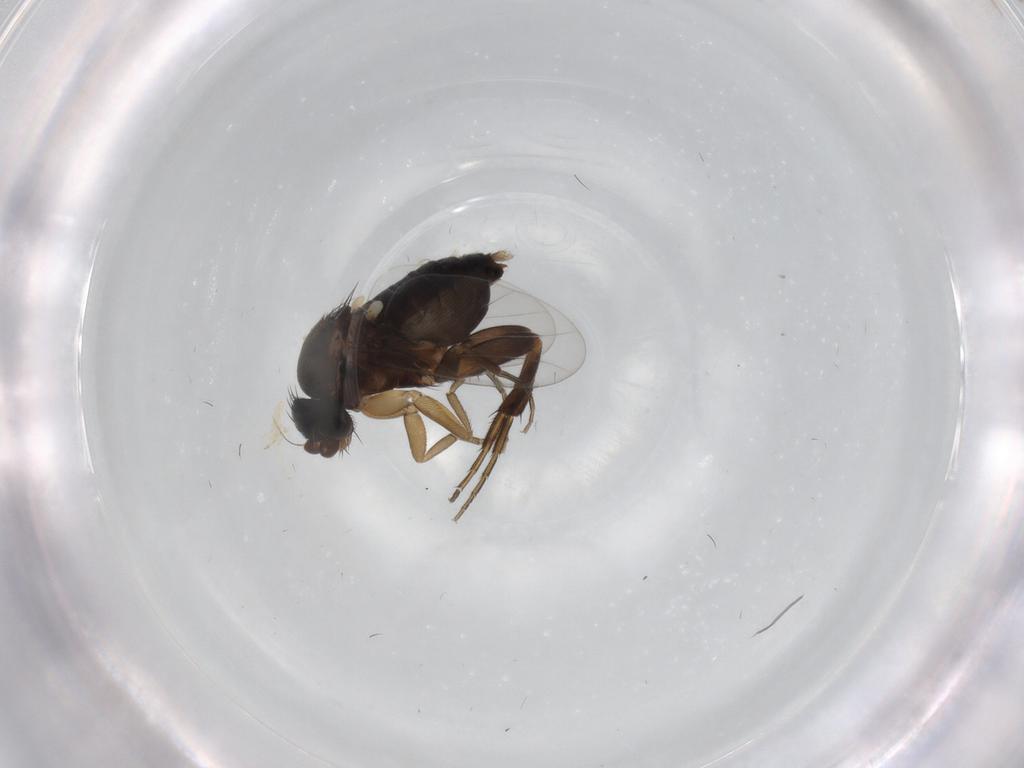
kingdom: Animalia
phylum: Arthropoda
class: Insecta
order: Diptera
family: Phoridae
